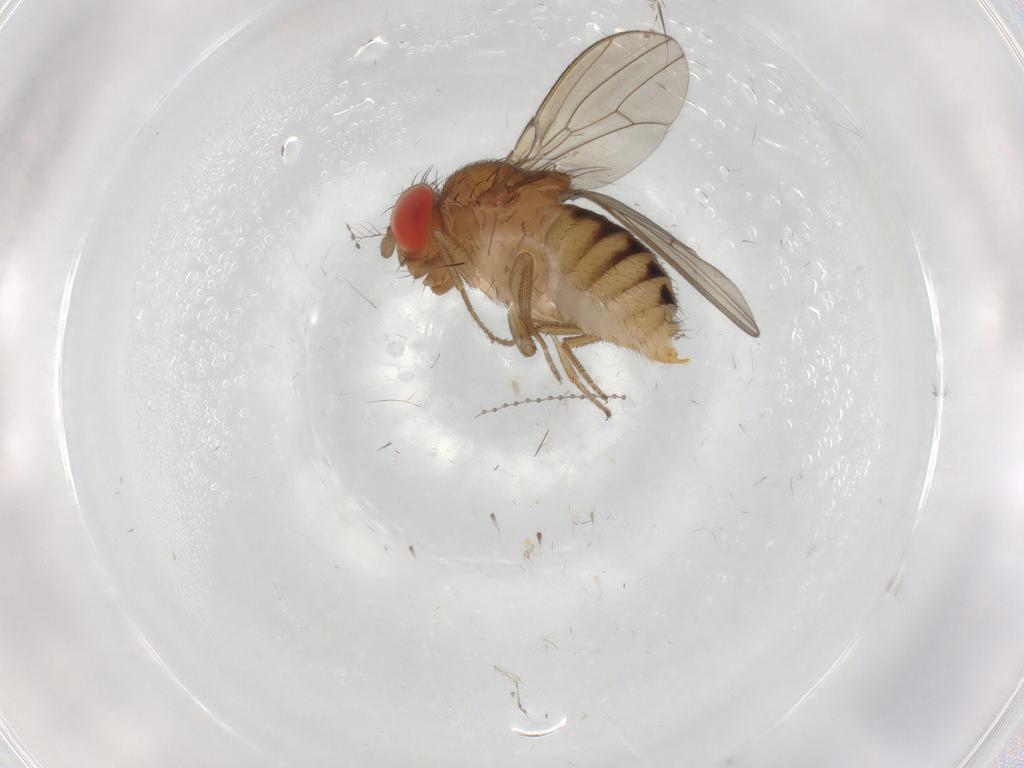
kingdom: Animalia
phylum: Arthropoda
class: Insecta
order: Diptera
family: Drosophilidae
